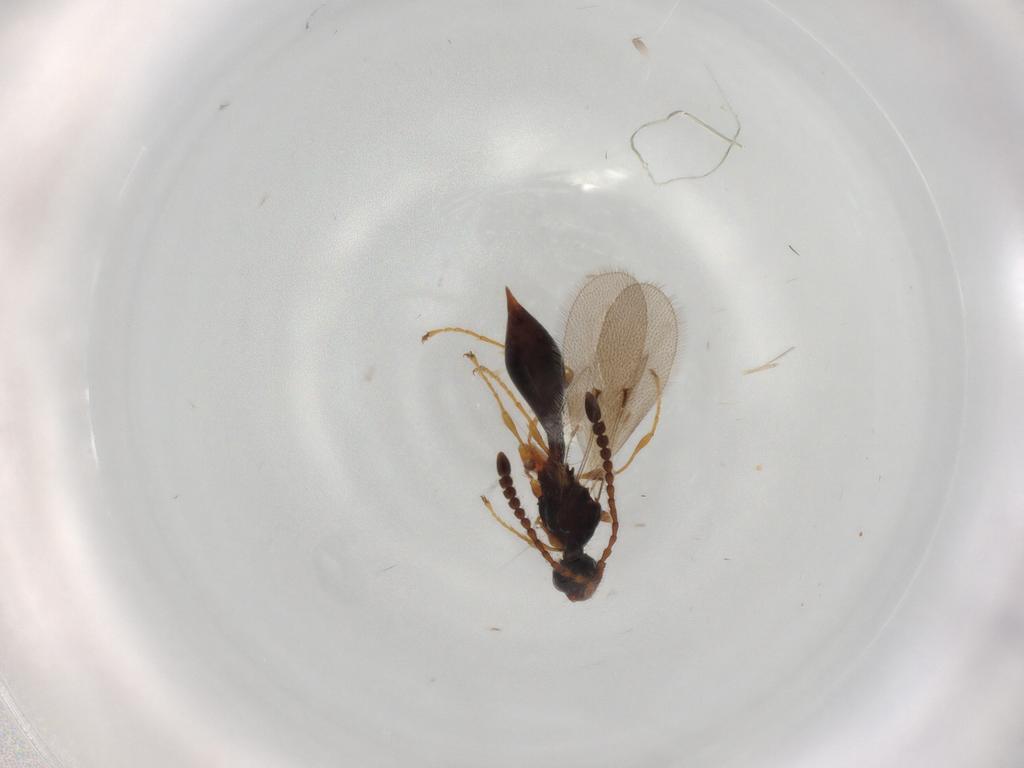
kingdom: Animalia
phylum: Arthropoda
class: Insecta
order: Hymenoptera
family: Diapriidae
